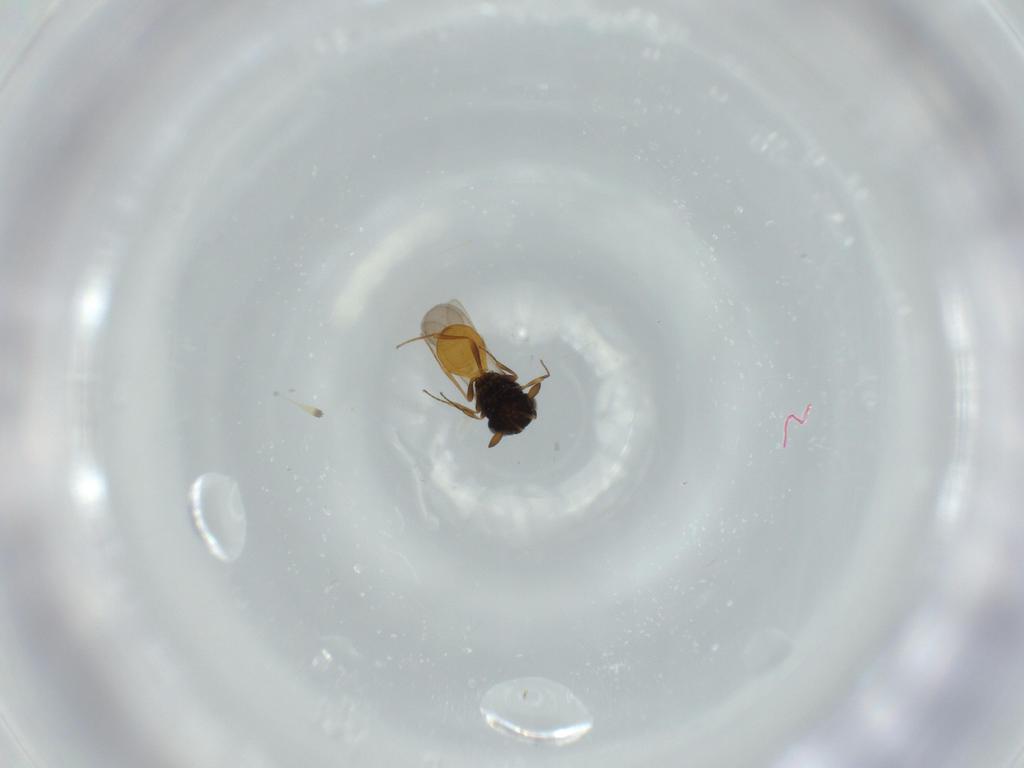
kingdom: Animalia
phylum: Arthropoda
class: Insecta
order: Hymenoptera
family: Scelionidae
